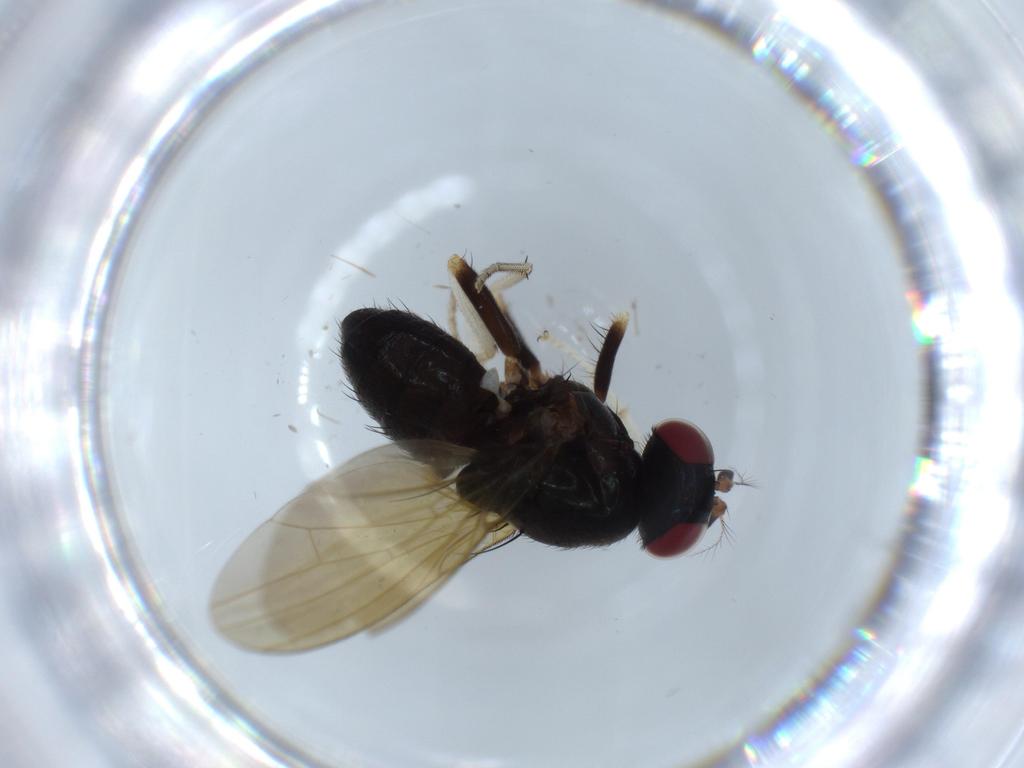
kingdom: Animalia
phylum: Arthropoda
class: Insecta
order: Diptera
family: Lauxaniidae
